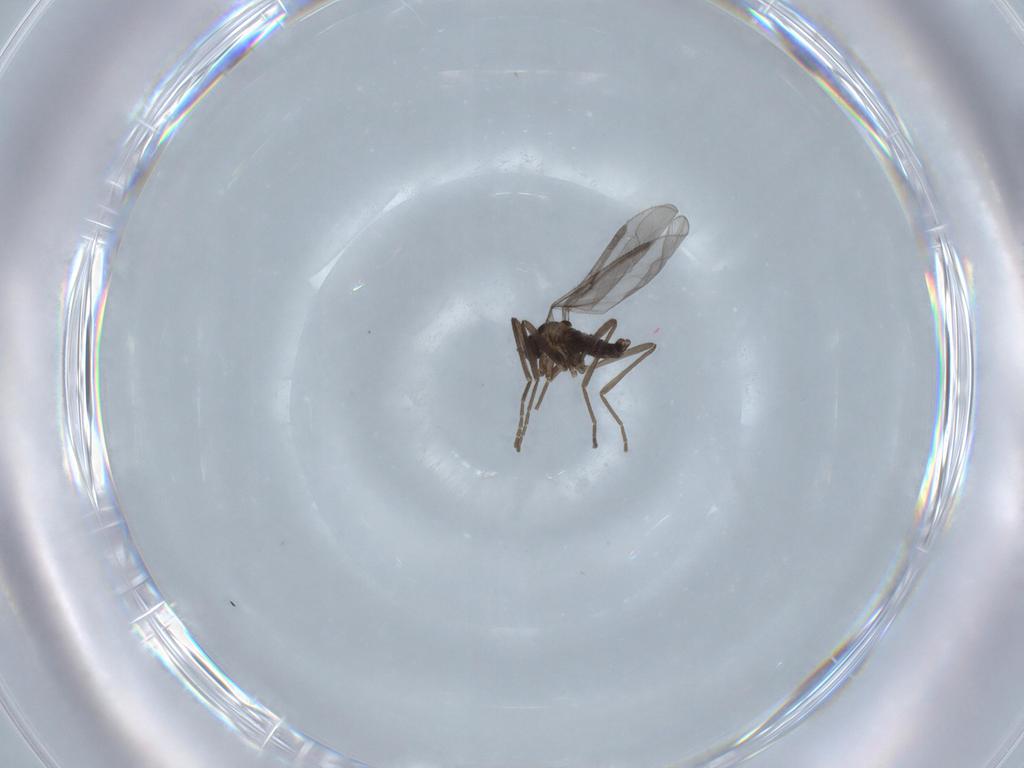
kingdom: Animalia
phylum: Arthropoda
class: Insecta
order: Diptera
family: Cecidomyiidae
